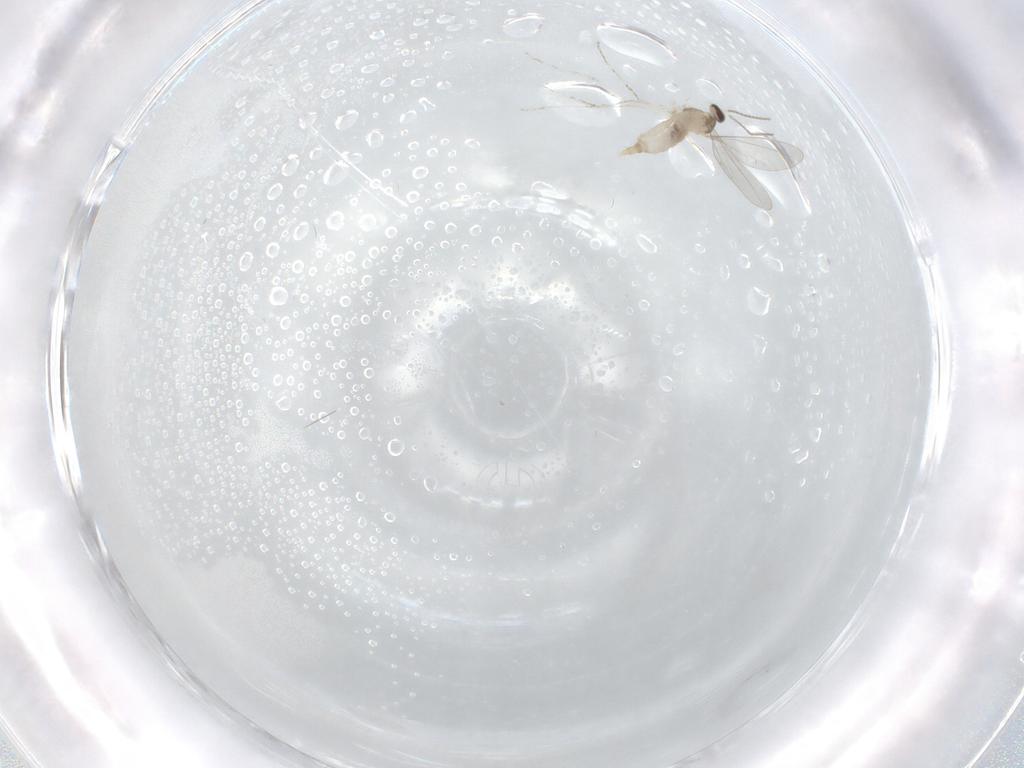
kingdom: Animalia
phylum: Arthropoda
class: Insecta
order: Diptera
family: Cecidomyiidae
